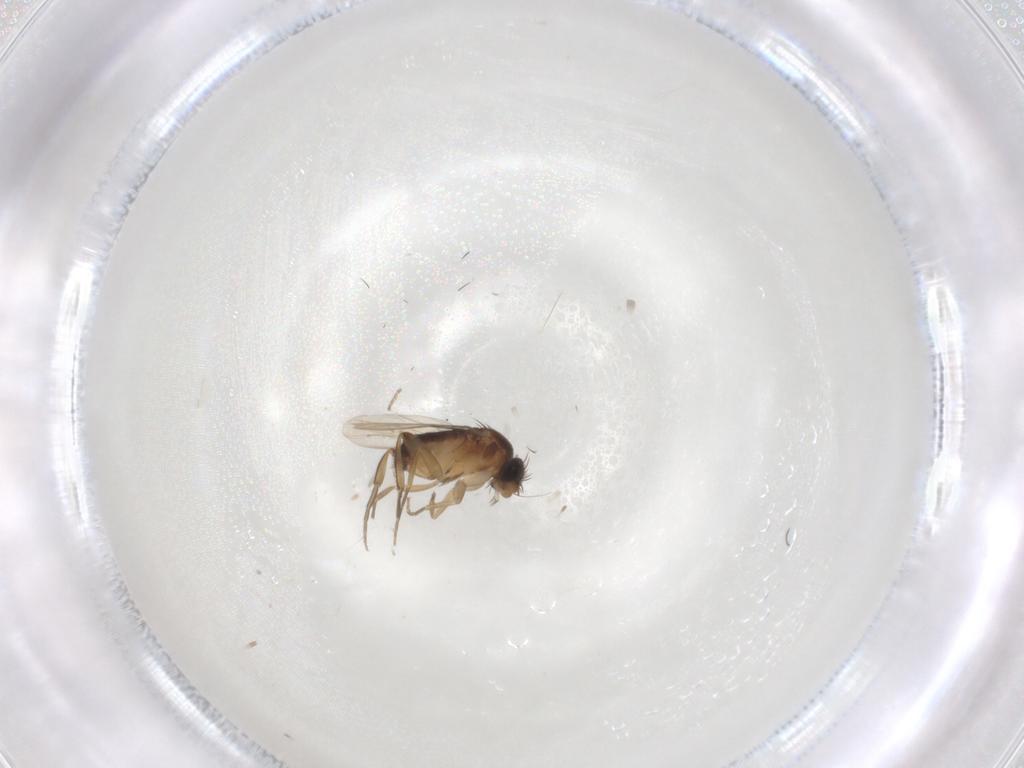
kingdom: Animalia
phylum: Arthropoda
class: Insecta
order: Diptera
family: Phoridae
